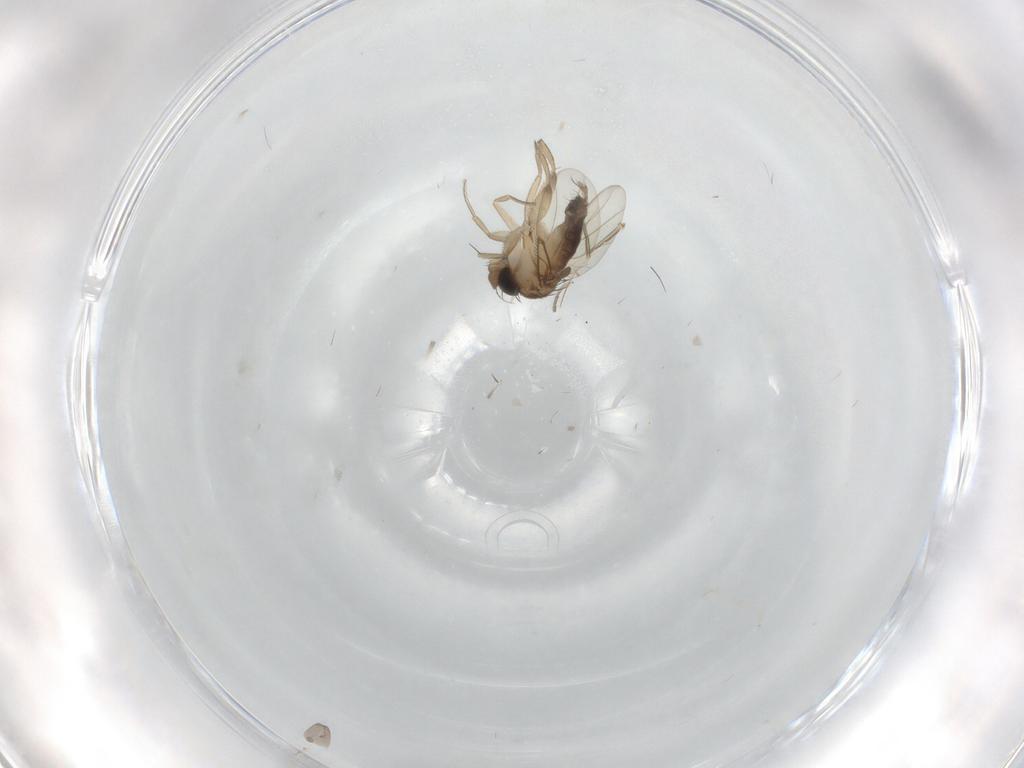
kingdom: Animalia
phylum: Arthropoda
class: Insecta
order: Diptera
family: Sciaridae
